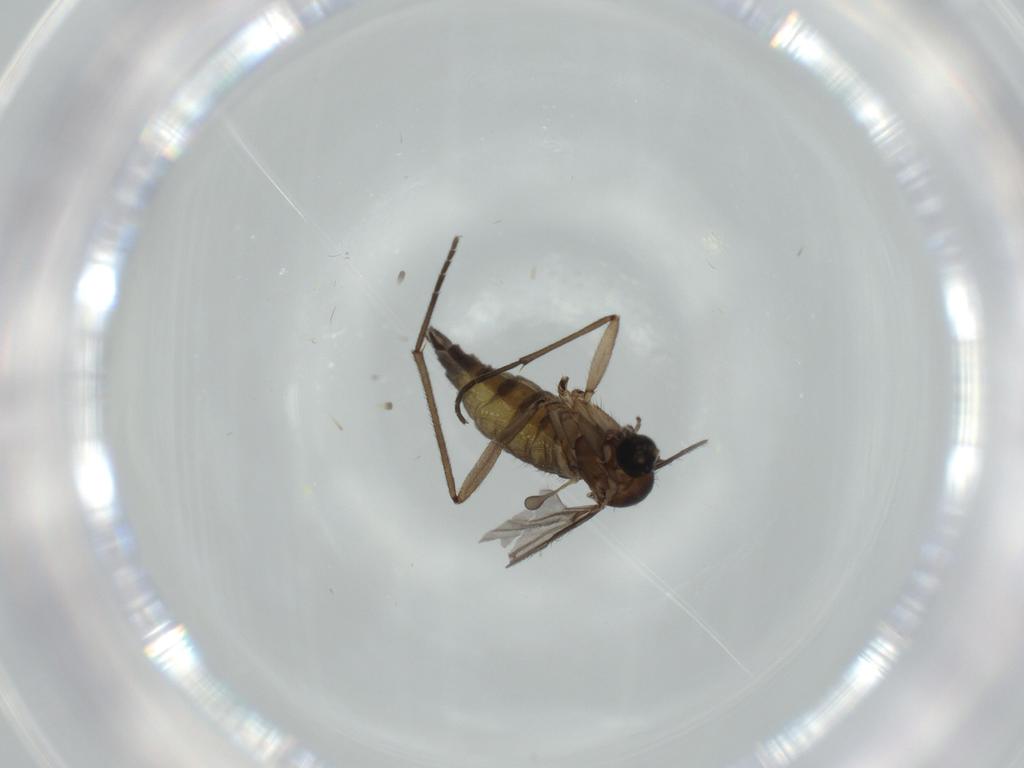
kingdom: Animalia
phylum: Arthropoda
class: Insecta
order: Diptera
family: Sciaridae
